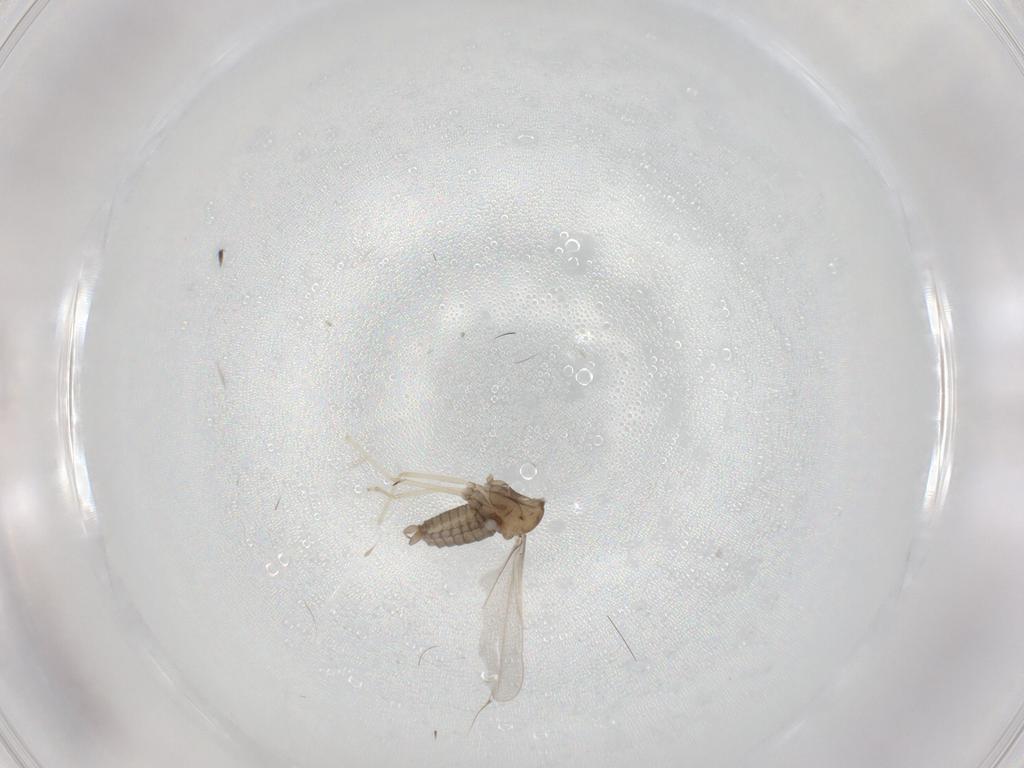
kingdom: Animalia
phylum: Arthropoda
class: Insecta
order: Diptera
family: Cecidomyiidae
